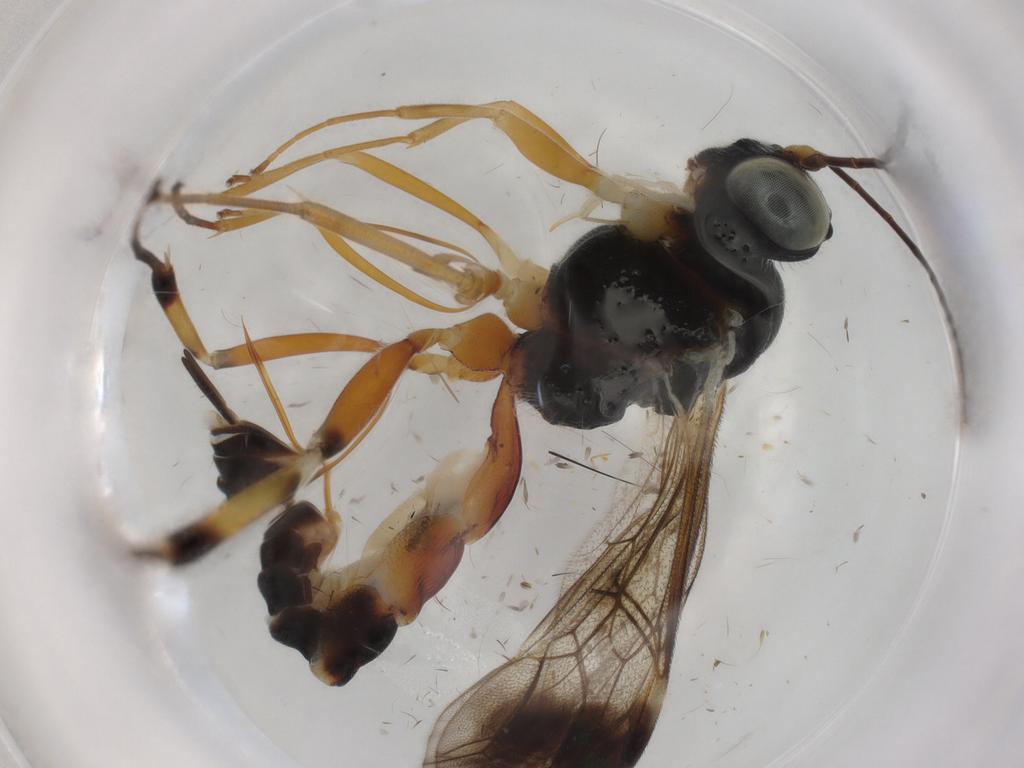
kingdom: Animalia
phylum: Arthropoda
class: Insecta
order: Hymenoptera
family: Ichneumonidae
